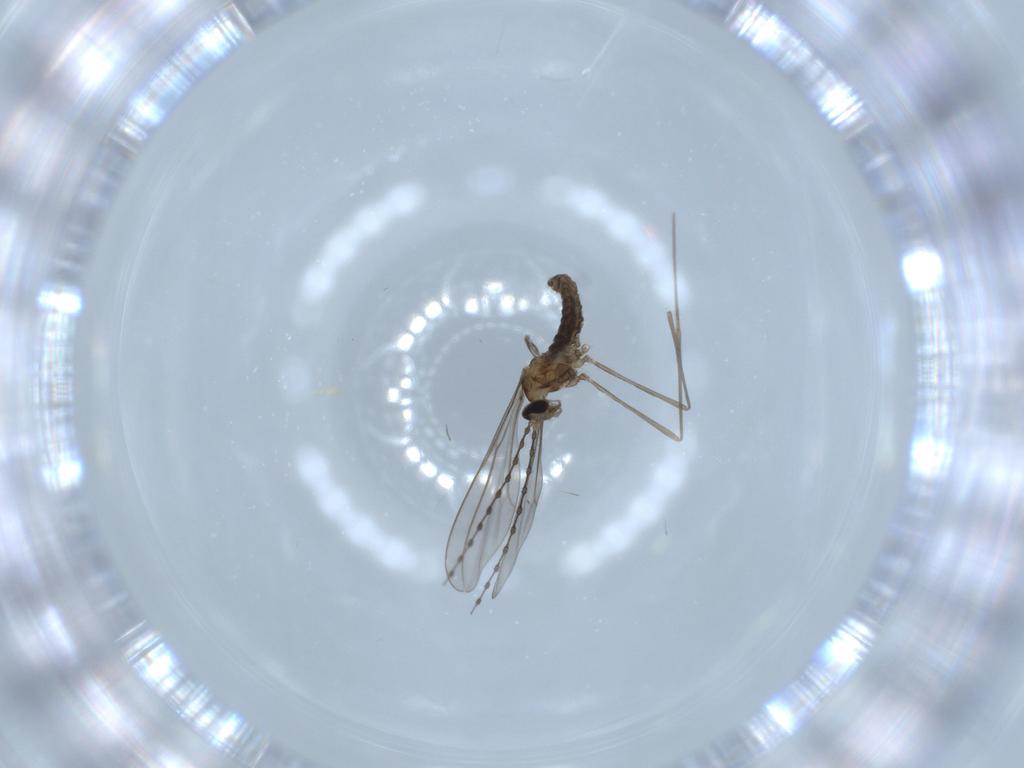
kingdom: Animalia
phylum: Arthropoda
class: Insecta
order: Diptera
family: Cecidomyiidae
